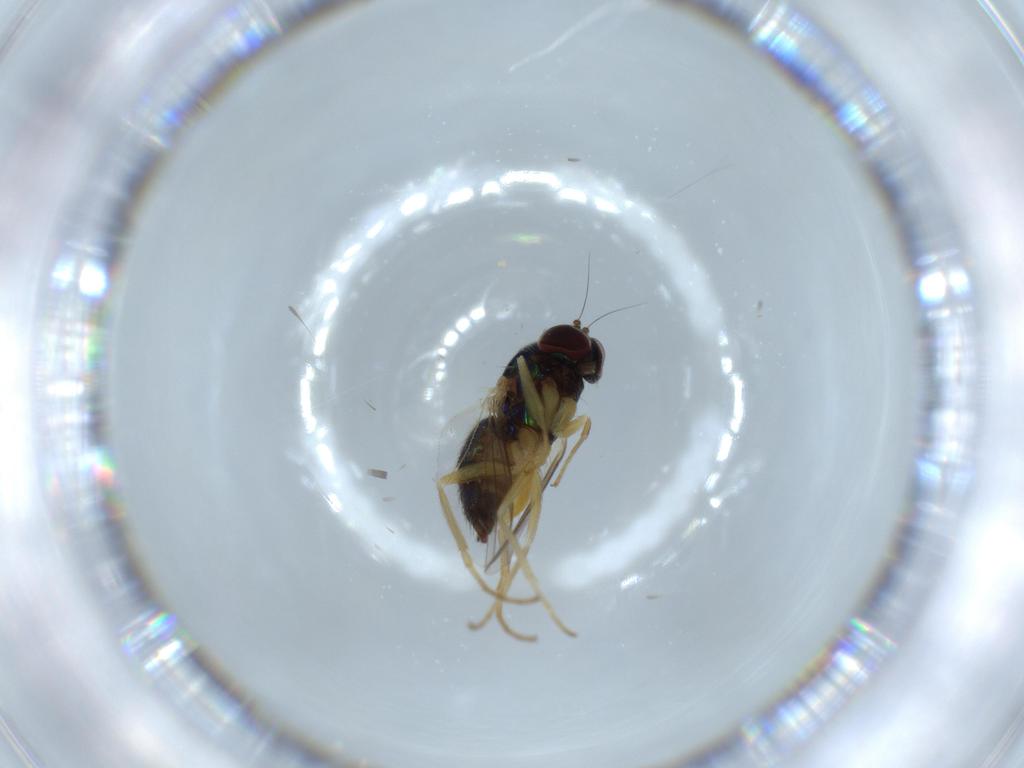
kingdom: Animalia
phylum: Arthropoda
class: Insecta
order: Diptera
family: Dolichopodidae
